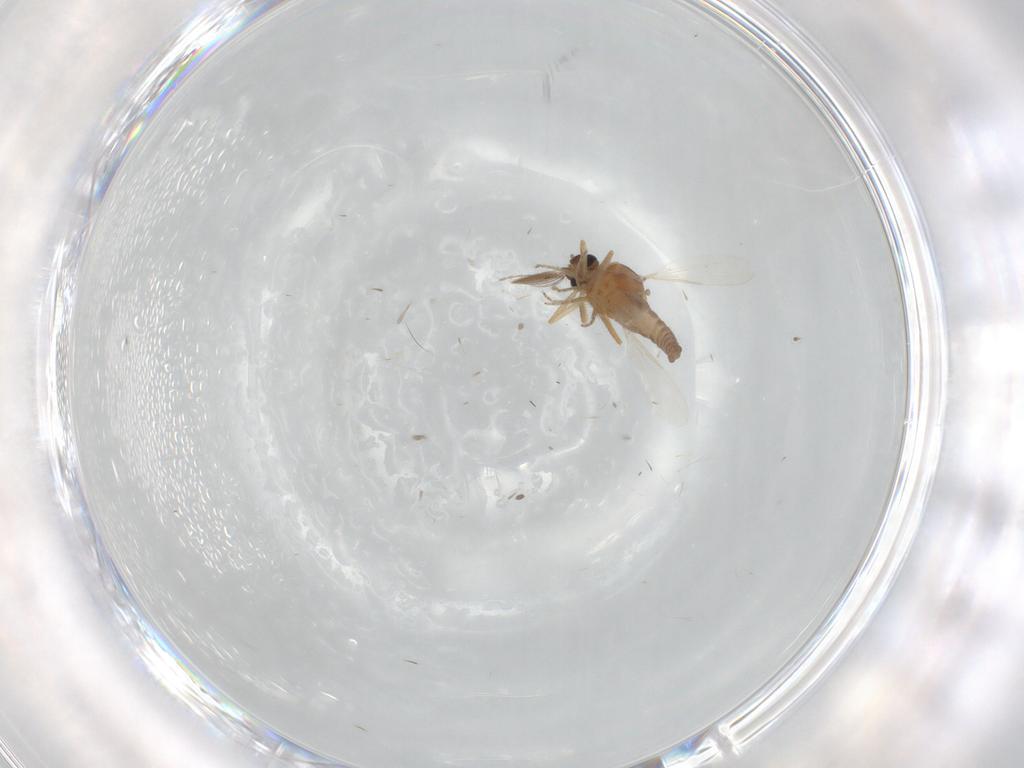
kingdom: Animalia
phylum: Arthropoda
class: Insecta
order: Diptera
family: Ceratopogonidae
